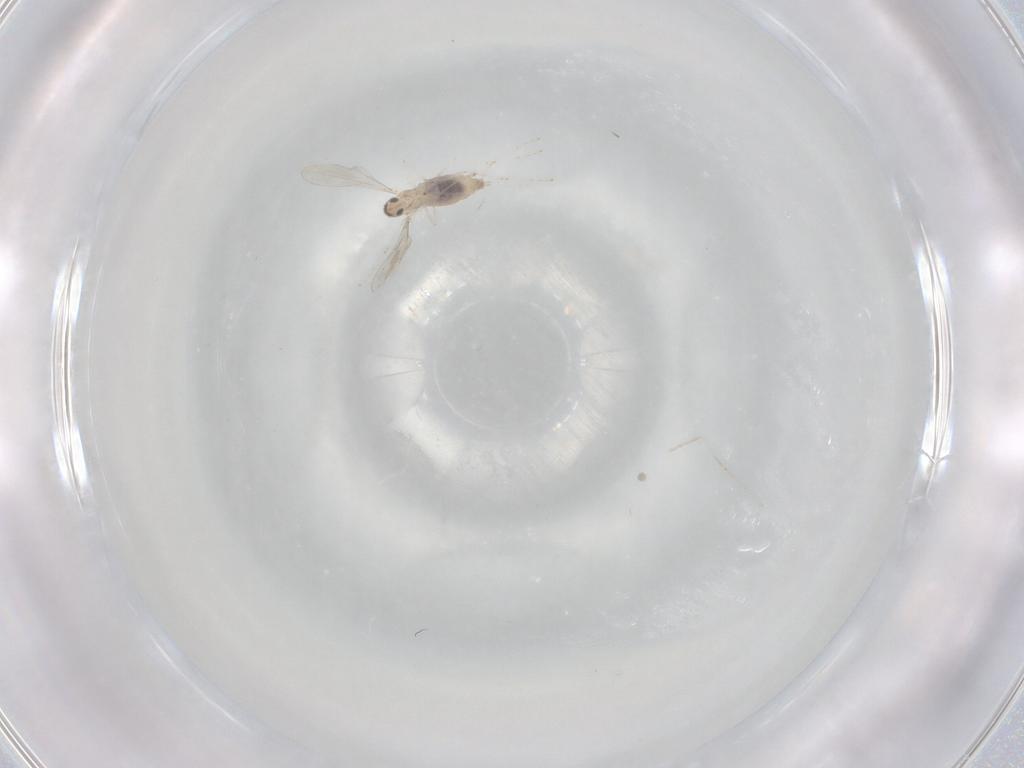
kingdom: Animalia
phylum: Arthropoda
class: Insecta
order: Diptera
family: Cecidomyiidae
